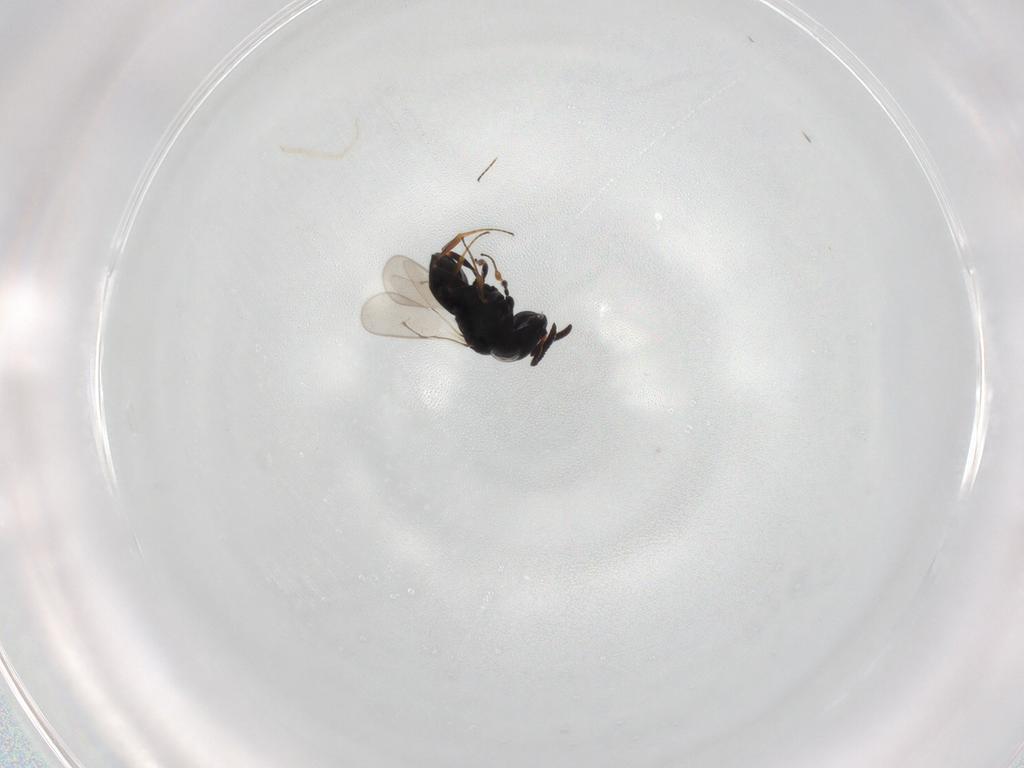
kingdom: Animalia
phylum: Arthropoda
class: Insecta
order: Hymenoptera
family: Scelionidae
